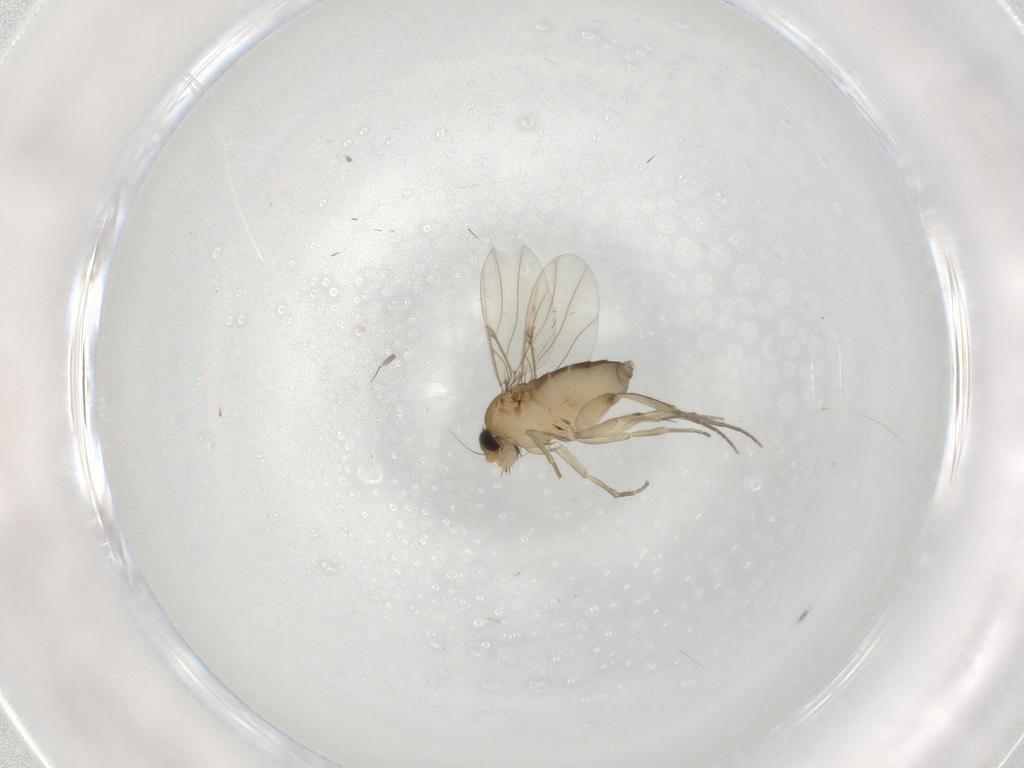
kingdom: Animalia
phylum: Arthropoda
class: Insecta
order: Diptera
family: Phoridae
